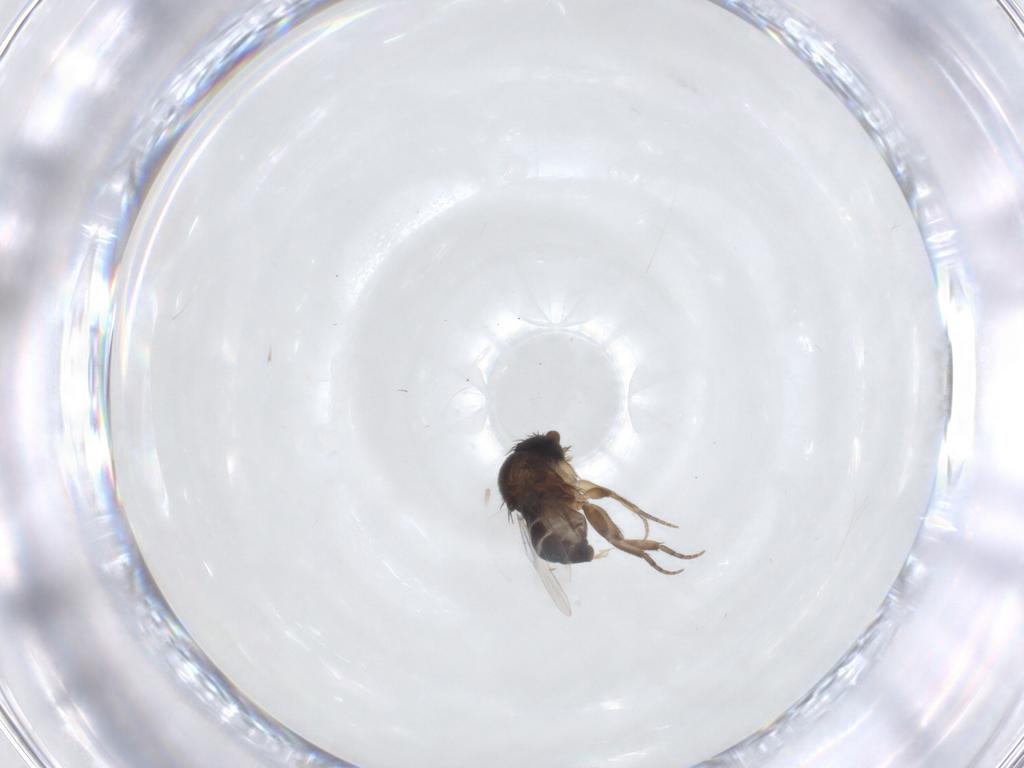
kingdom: Animalia
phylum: Arthropoda
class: Insecta
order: Diptera
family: Phoridae
